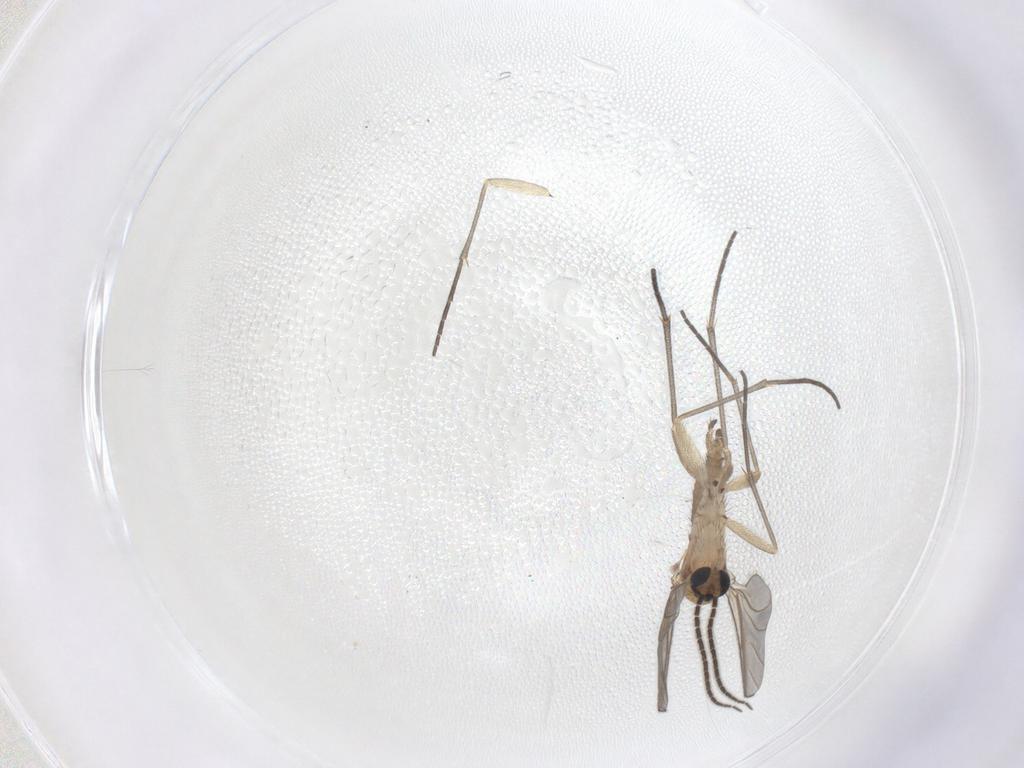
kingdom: Animalia
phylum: Arthropoda
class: Insecta
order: Diptera
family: Sciaridae
